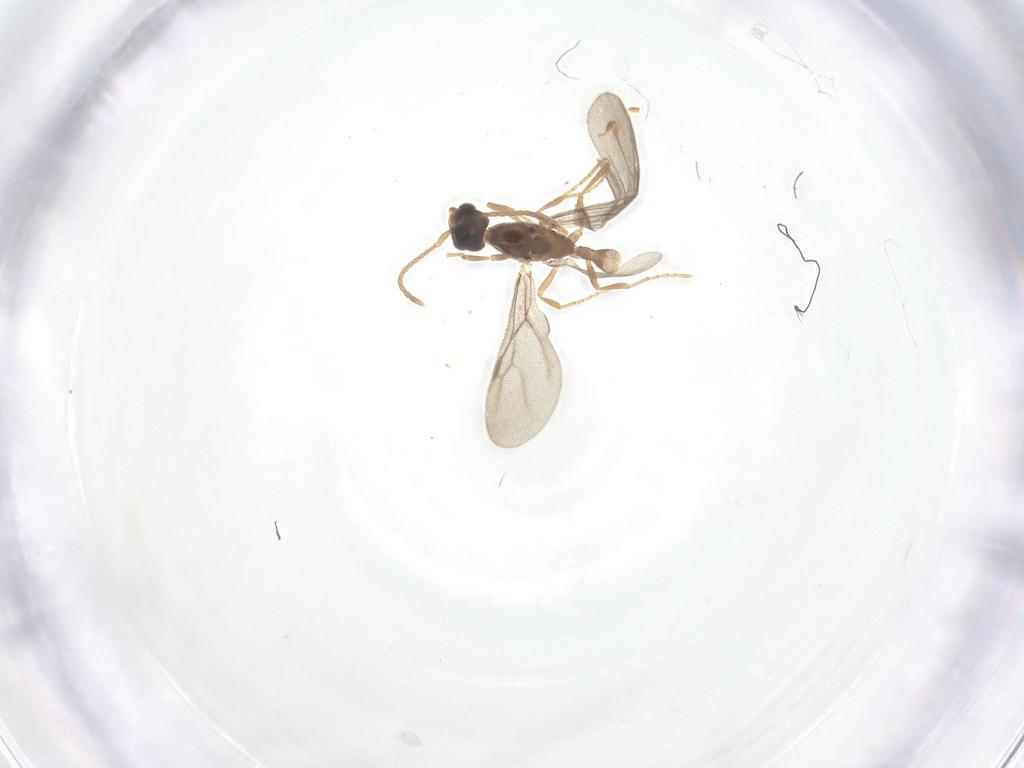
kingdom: Animalia
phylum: Arthropoda
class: Insecta
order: Hymenoptera
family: Formicidae
